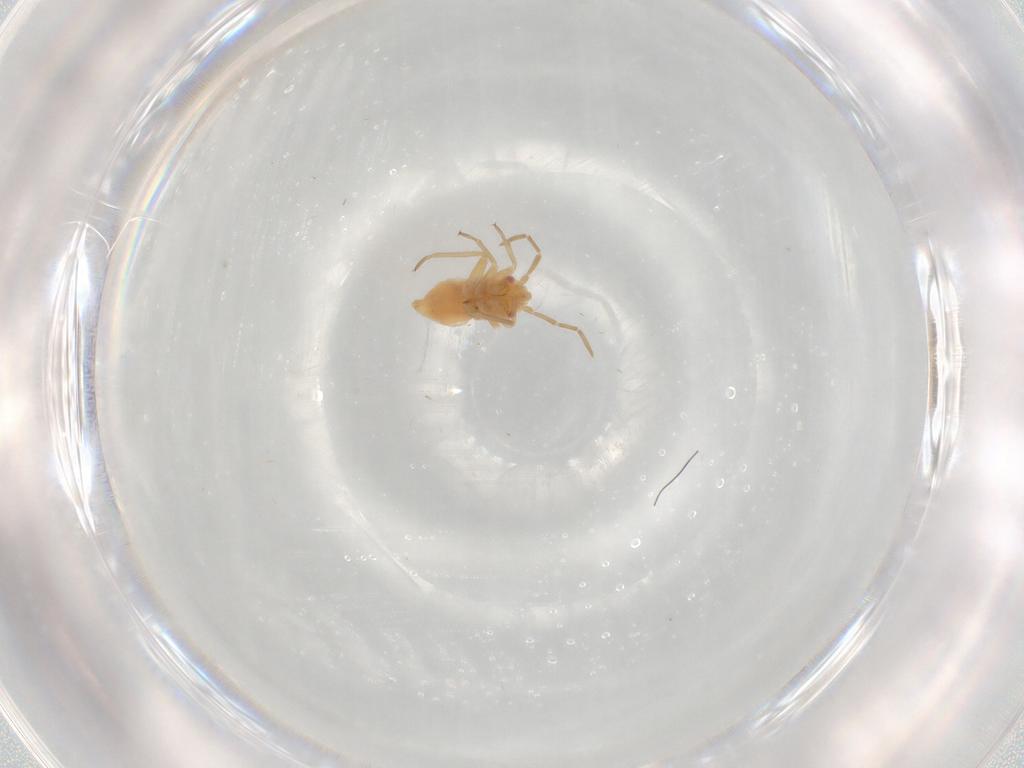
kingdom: Animalia
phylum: Arthropoda
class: Insecta
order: Hemiptera
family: Miridae
